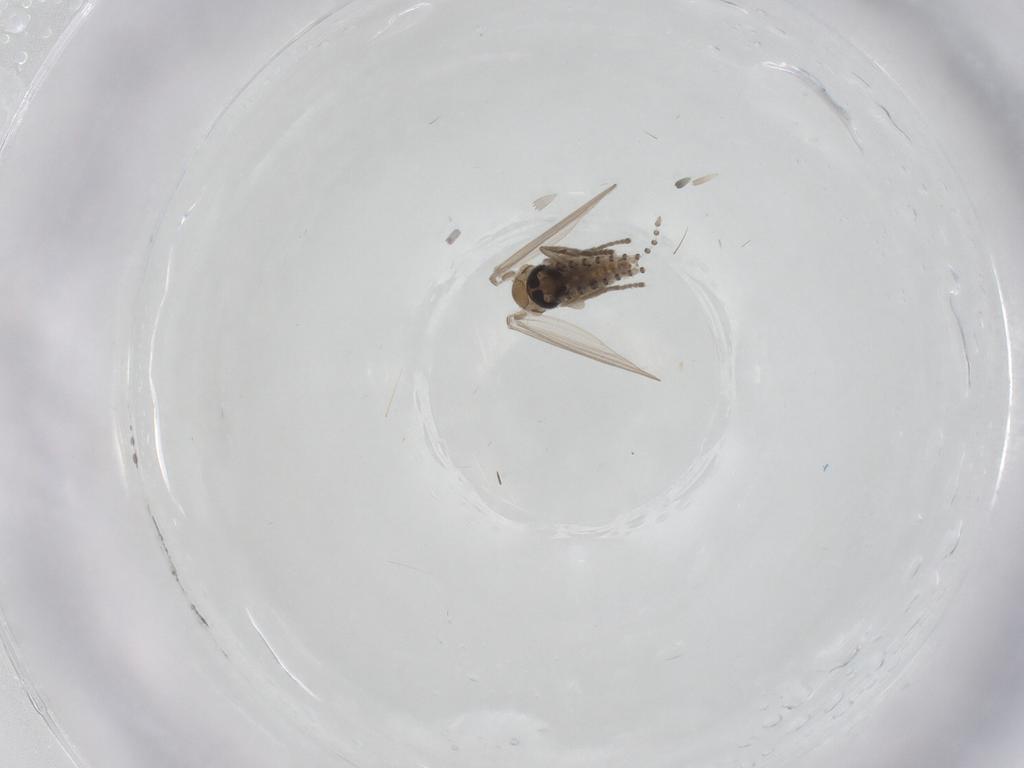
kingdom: Animalia
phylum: Arthropoda
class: Insecta
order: Diptera
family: Psychodidae
